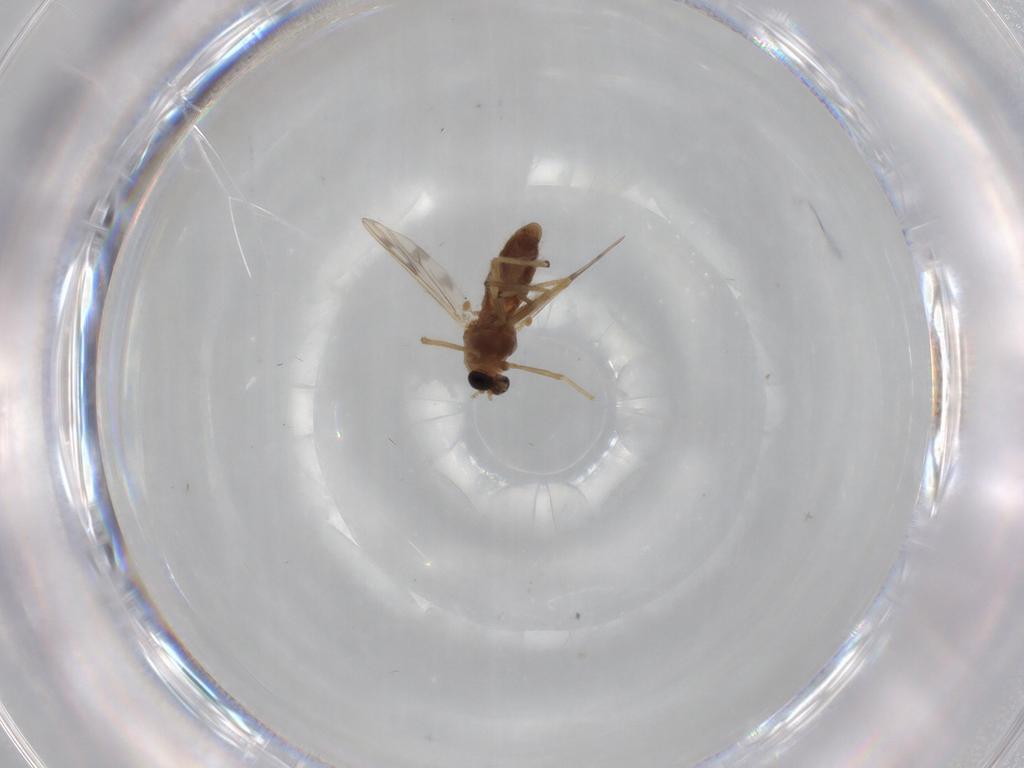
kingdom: Animalia
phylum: Arthropoda
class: Insecta
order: Diptera
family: Chironomidae
